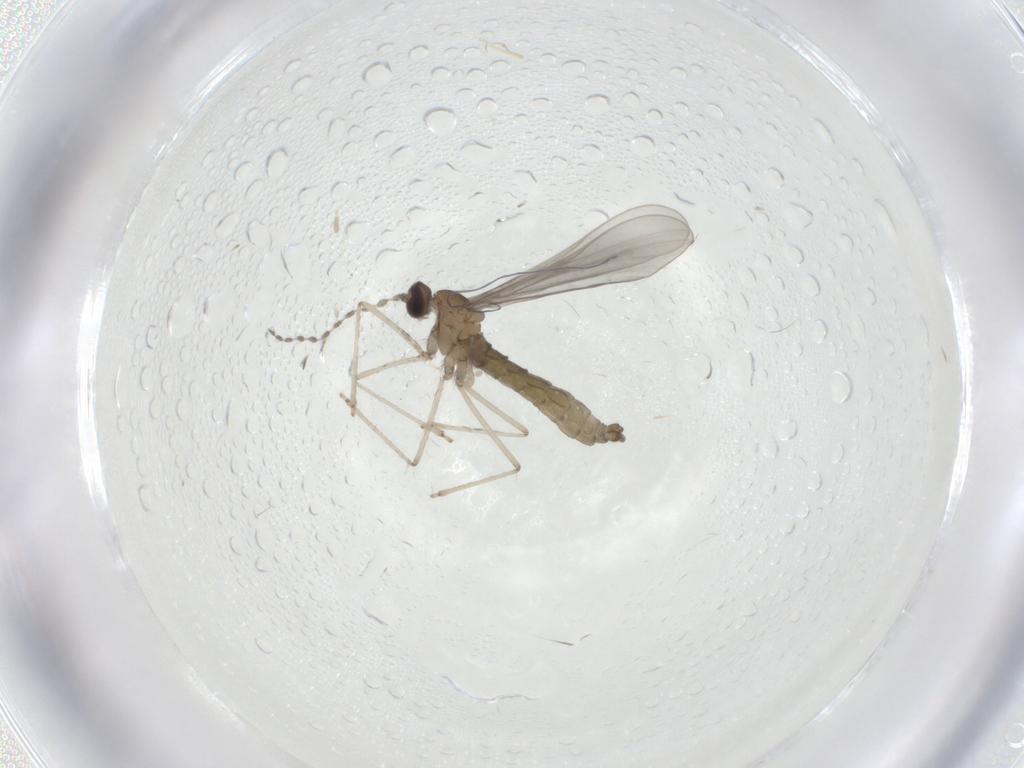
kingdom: Animalia
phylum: Arthropoda
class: Insecta
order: Diptera
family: Cecidomyiidae
